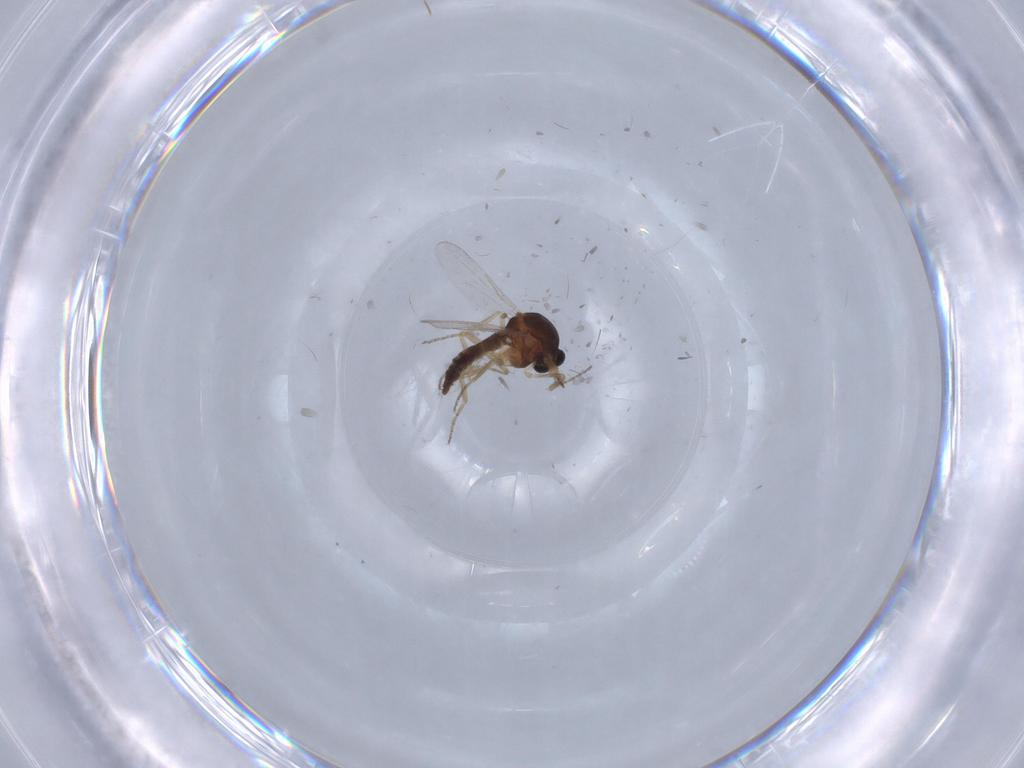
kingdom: Animalia
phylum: Arthropoda
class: Insecta
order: Diptera
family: Ceratopogonidae
